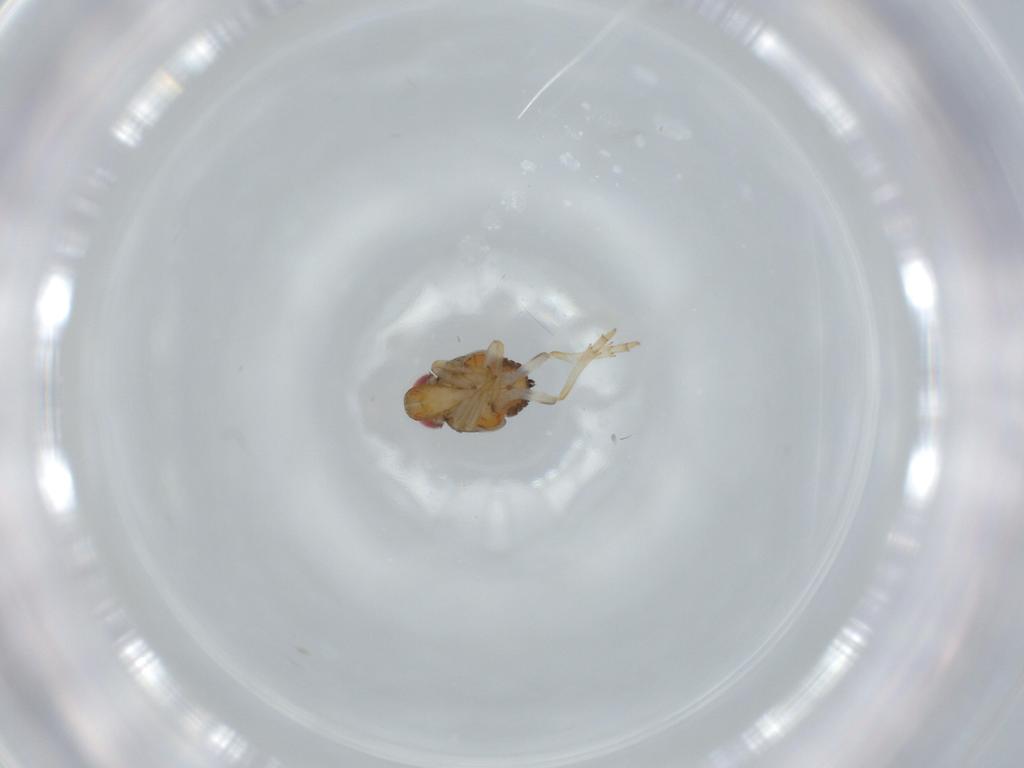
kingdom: Animalia
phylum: Arthropoda
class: Insecta
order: Hemiptera
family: Issidae
